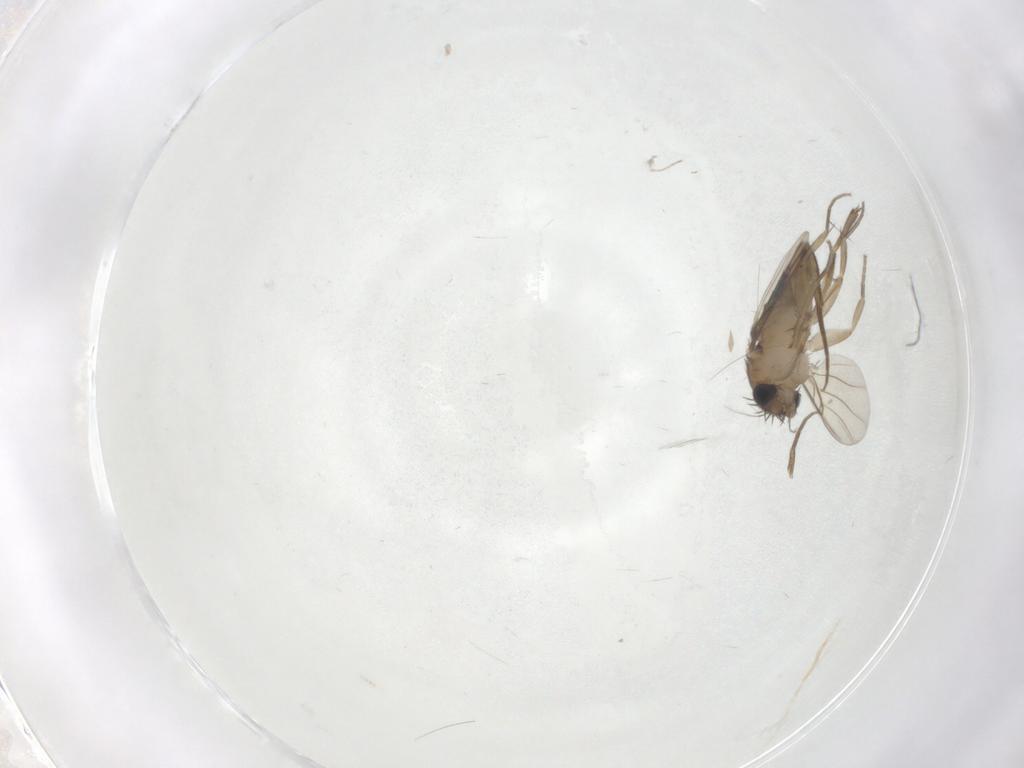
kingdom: Animalia
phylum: Arthropoda
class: Insecta
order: Diptera
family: Phoridae
